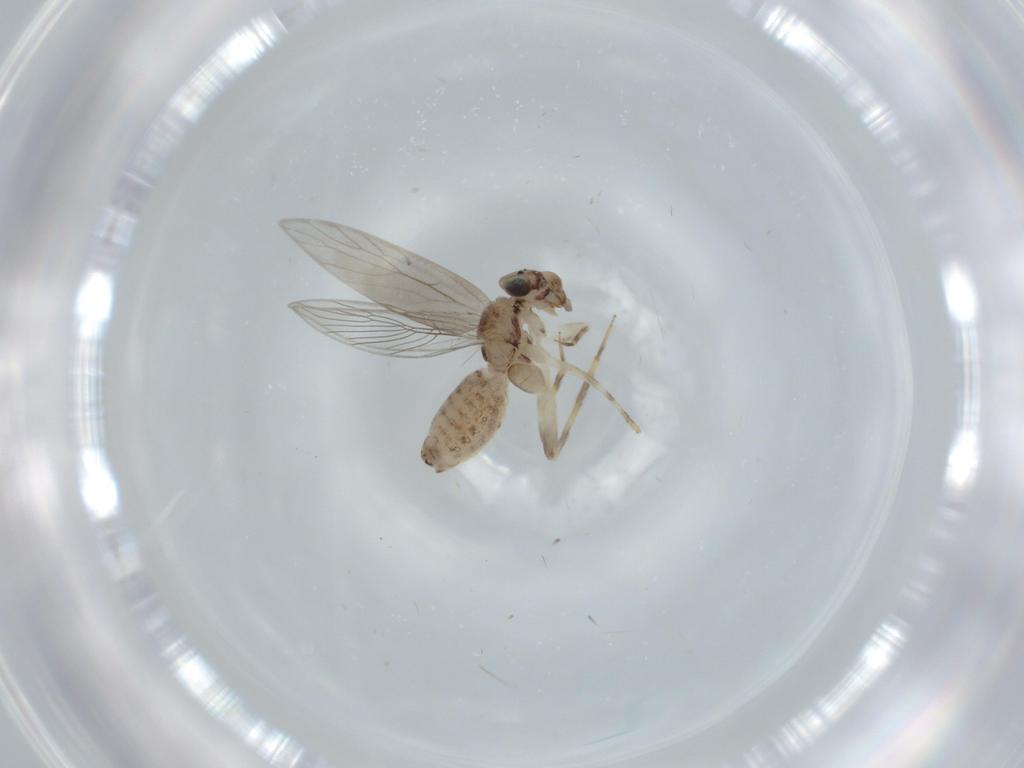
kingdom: Animalia
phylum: Arthropoda
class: Insecta
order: Psocodea
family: Lepidopsocidae
